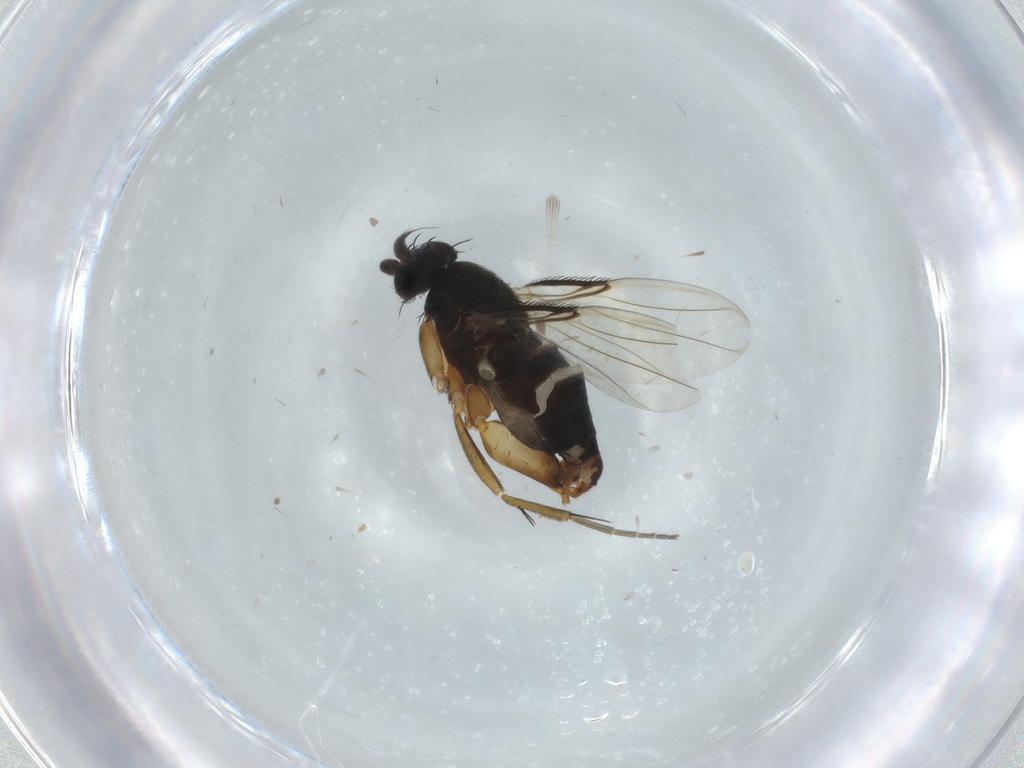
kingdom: Animalia
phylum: Arthropoda
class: Insecta
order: Diptera
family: Phoridae
